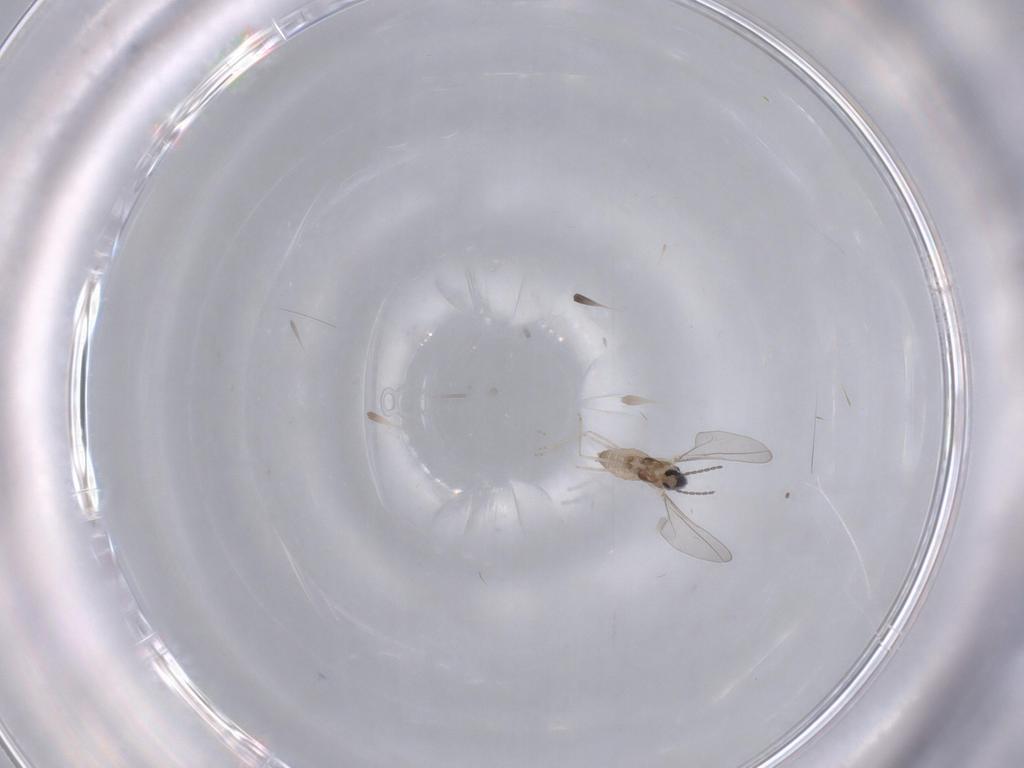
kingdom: Animalia
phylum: Arthropoda
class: Insecta
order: Diptera
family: Cecidomyiidae
